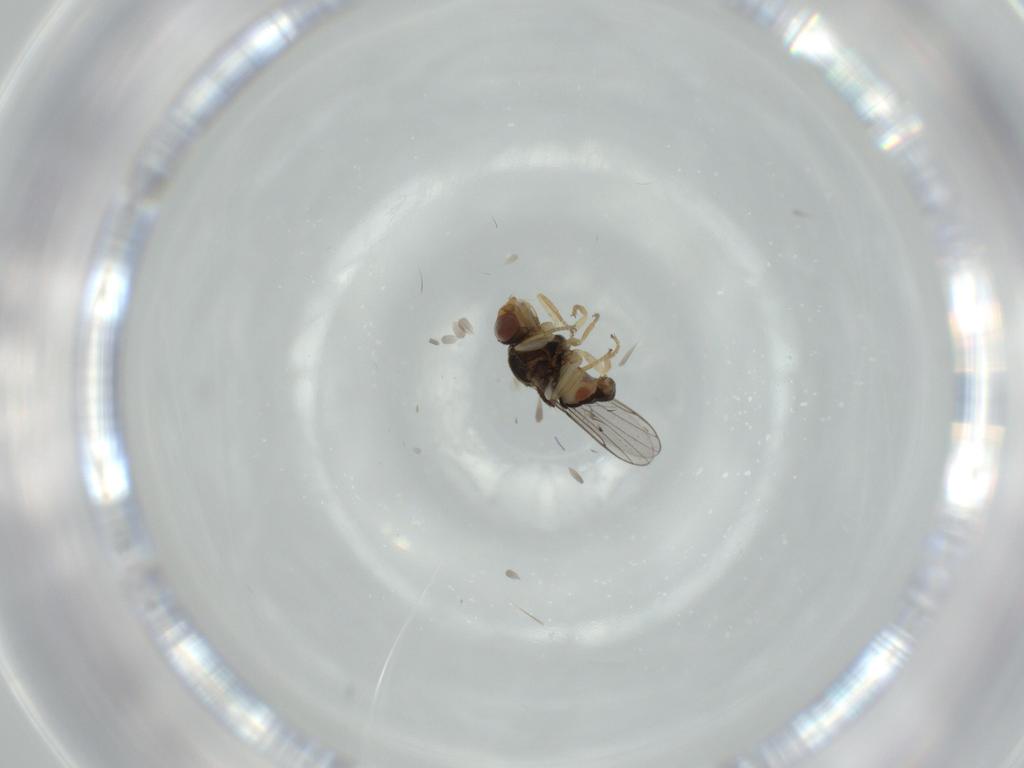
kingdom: Animalia
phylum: Arthropoda
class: Insecta
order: Diptera
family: Chloropidae
